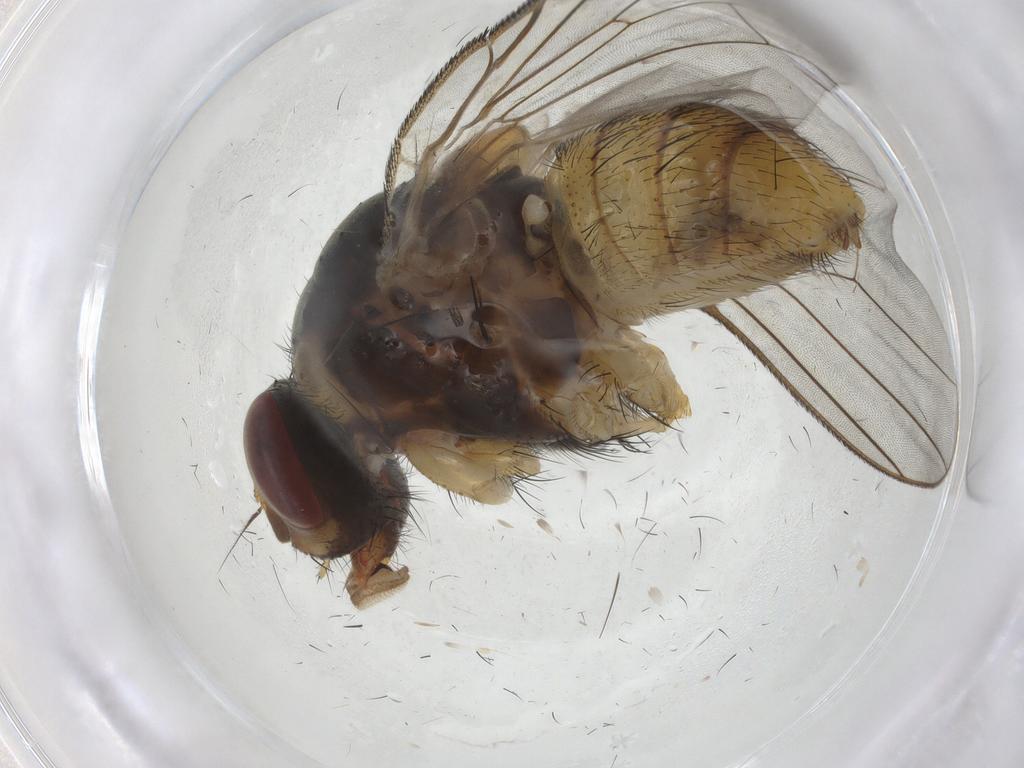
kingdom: Animalia
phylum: Arthropoda
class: Insecta
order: Diptera
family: Muscidae
